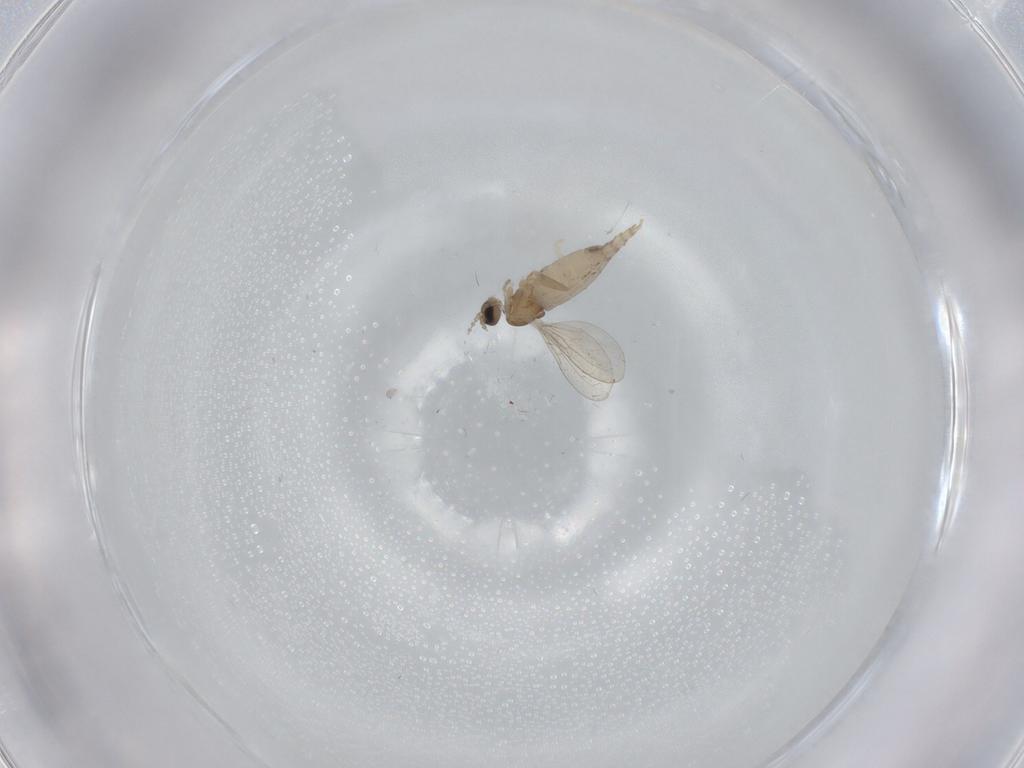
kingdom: Animalia
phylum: Arthropoda
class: Insecta
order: Diptera
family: Cecidomyiidae
